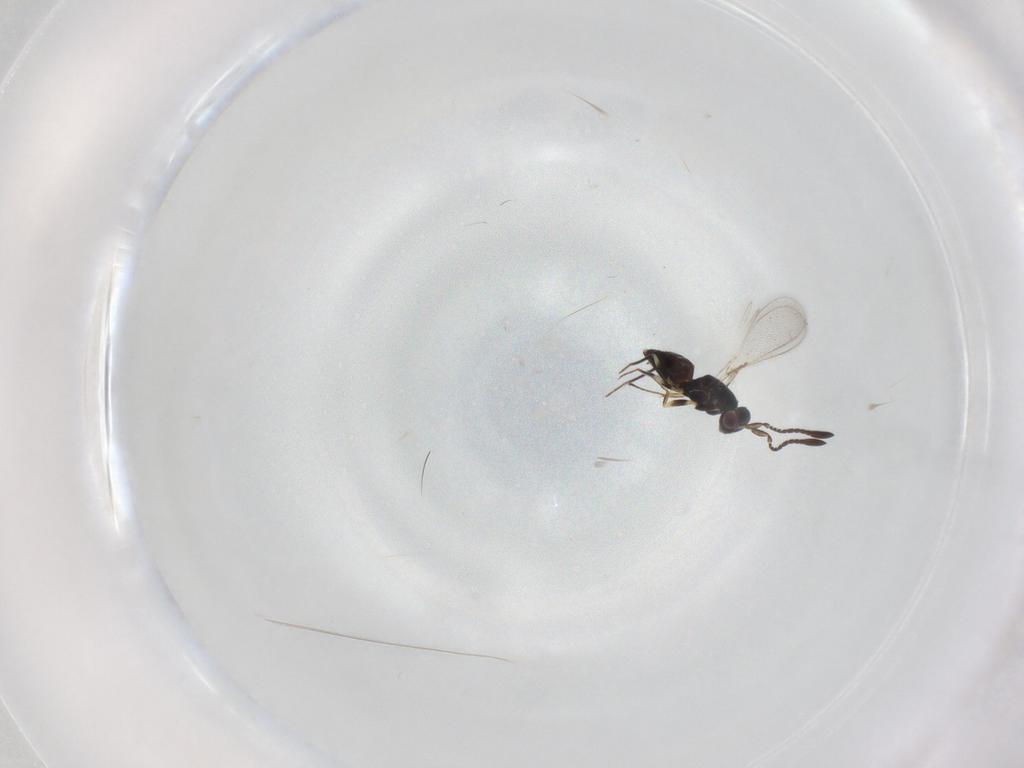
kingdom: Animalia
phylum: Arthropoda
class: Insecta
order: Hymenoptera
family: Mymaridae
